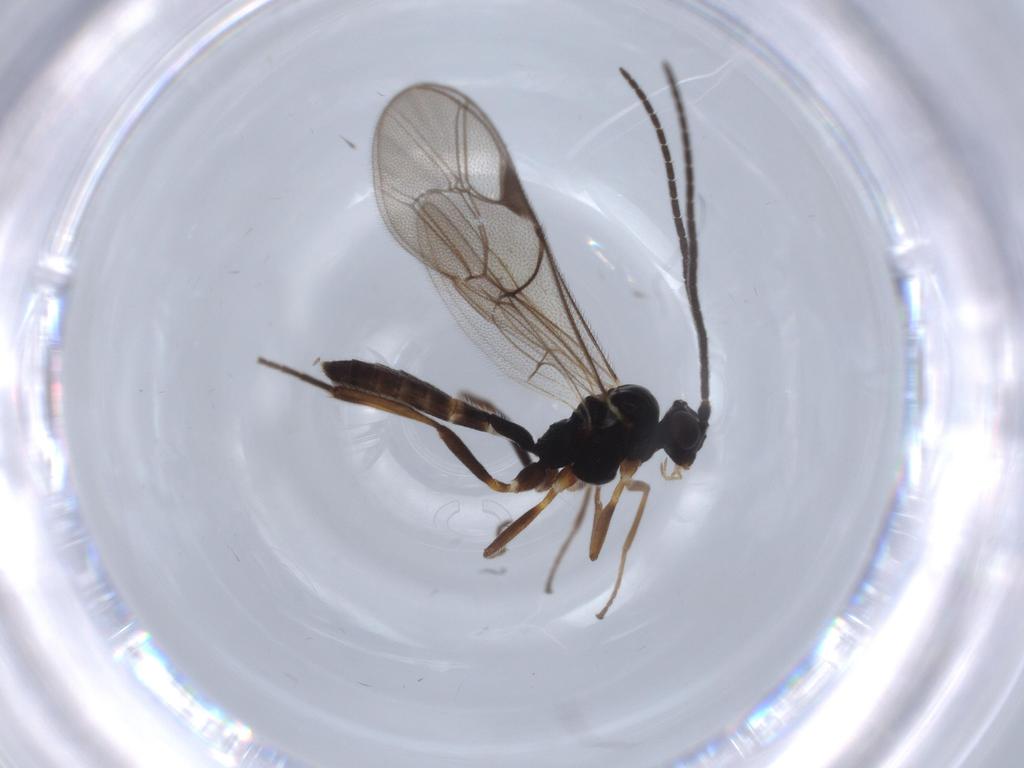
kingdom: Animalia
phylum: Arthropoda
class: Insecta
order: Hymenoptera
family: Ichneumonidae
